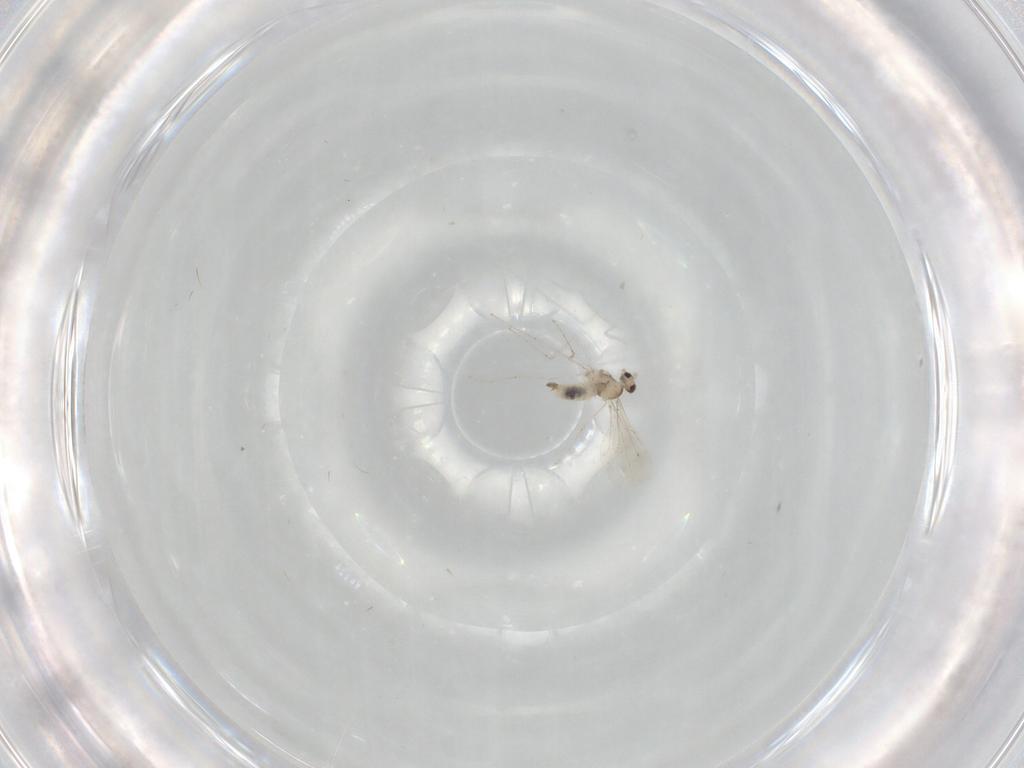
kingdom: Animalia
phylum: Arthropoda
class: Insecta
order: Diptera
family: Cecidomyiidae
